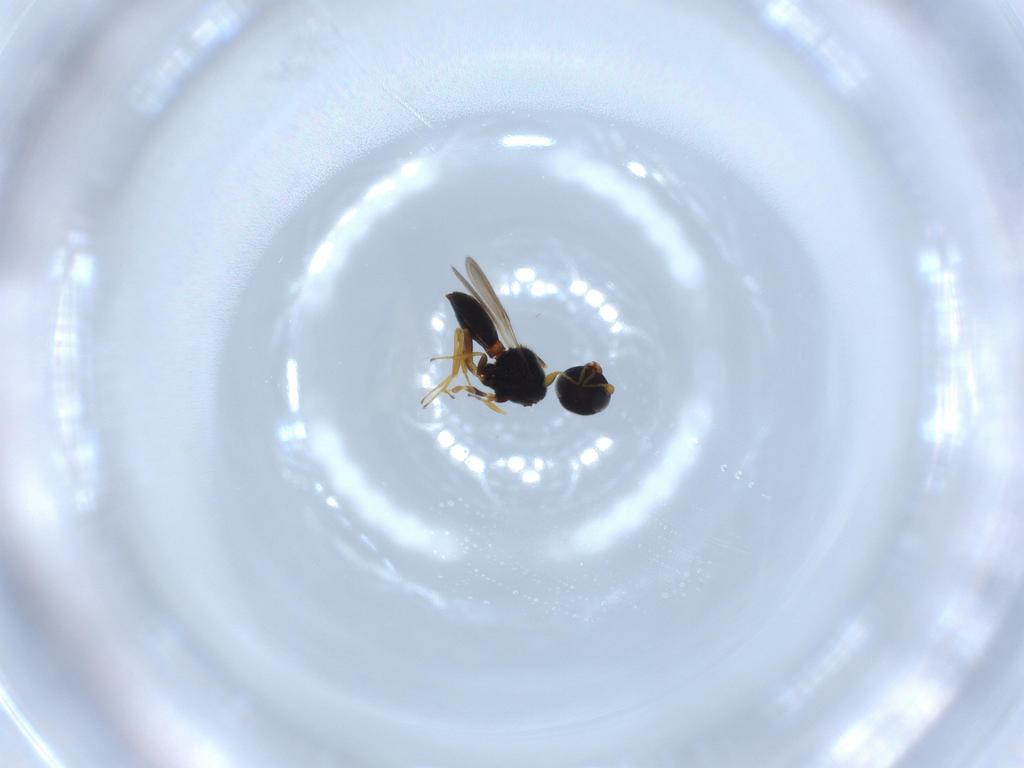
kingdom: Animalia
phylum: Arthropoda
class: Insecta
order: Hymenoptera
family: Scelionidae
